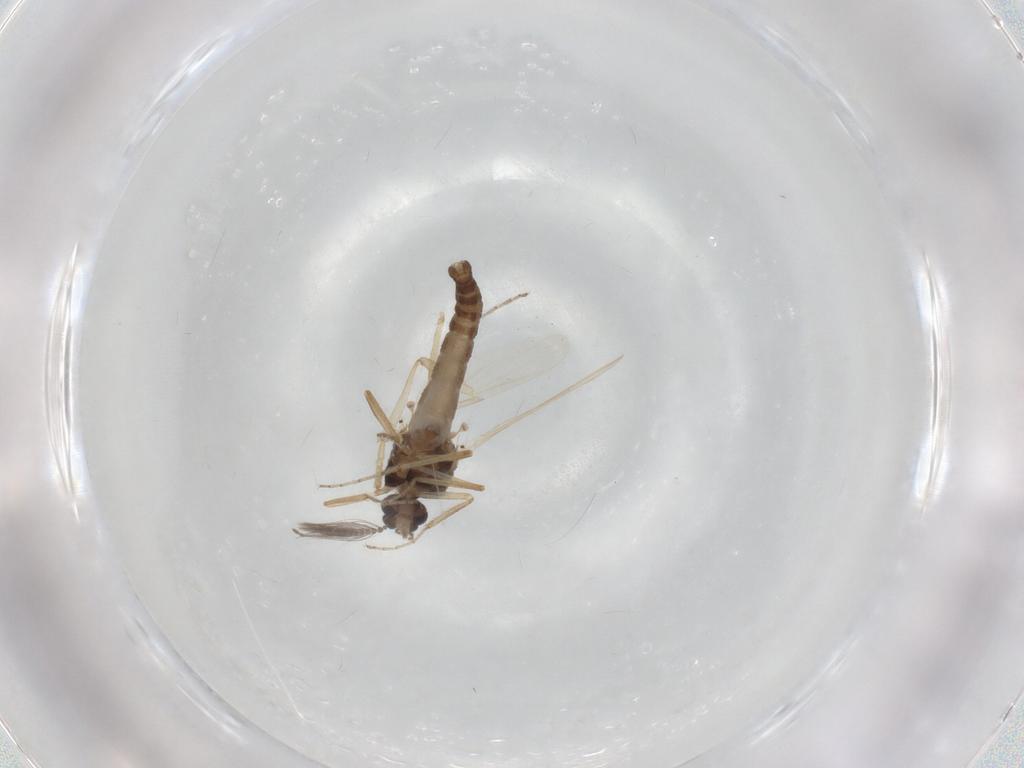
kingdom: Animalia
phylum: Arthropoda
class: Insecta
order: Diptera
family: Ceratopogonidae
